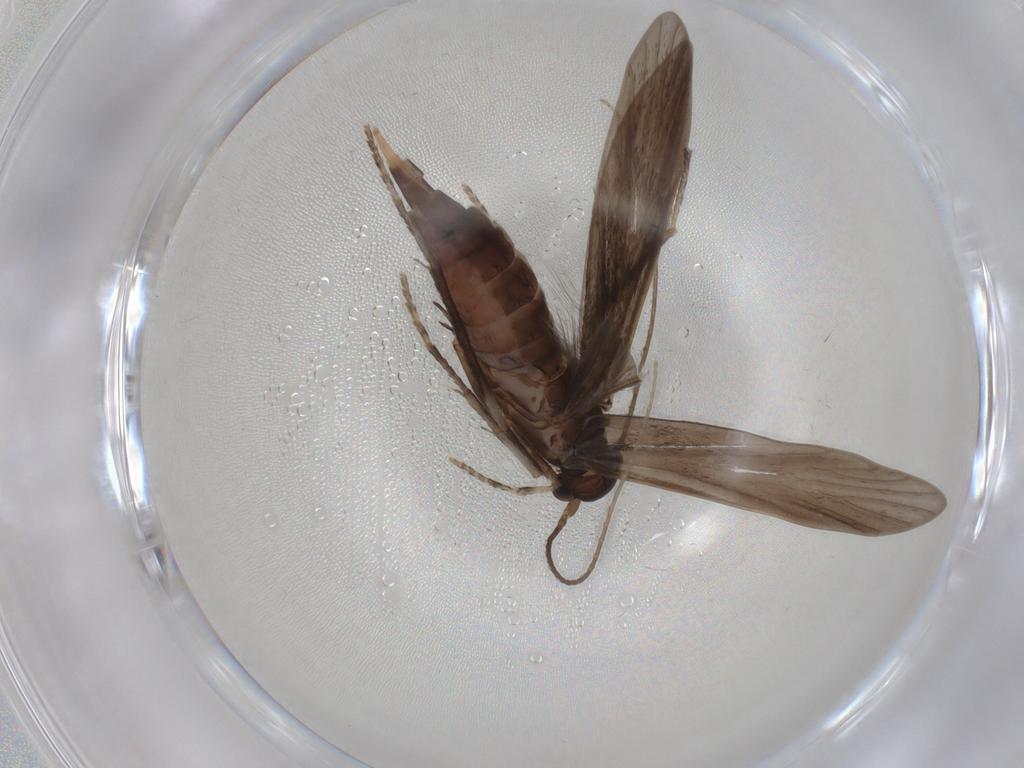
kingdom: Animalia
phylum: Arthropoda
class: Insecta
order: Trichoptera
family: Xiphocentronidae
